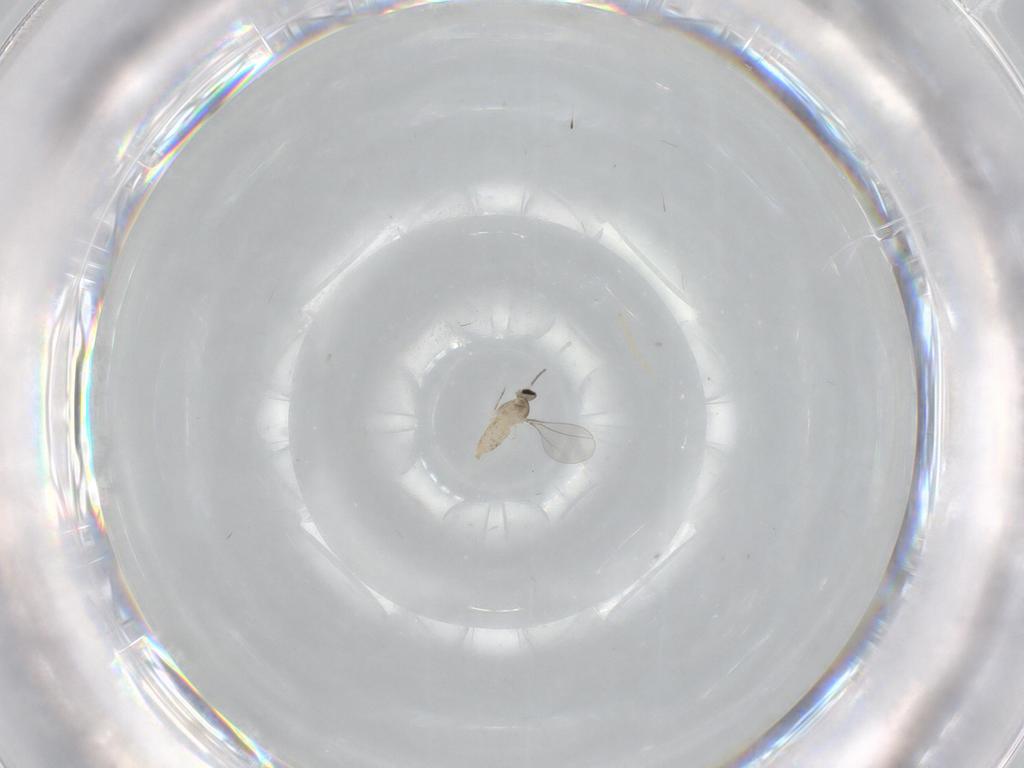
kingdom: Animalia
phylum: Arthropoda
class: Insecta
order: Diptera
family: Cecidomyiidae
